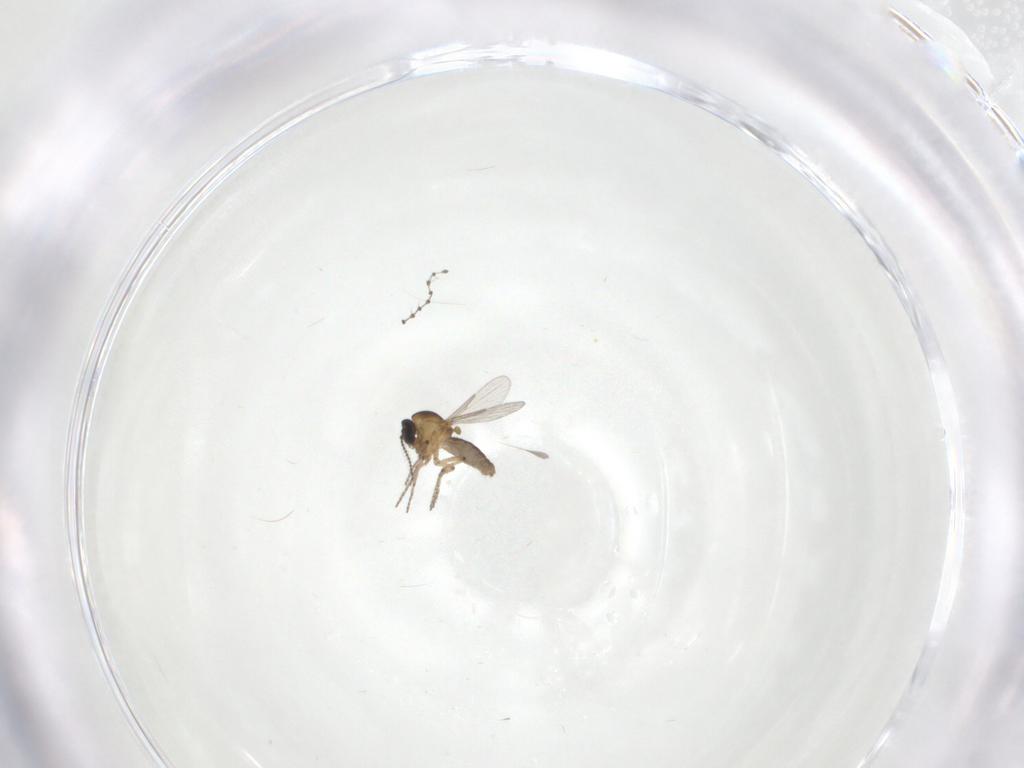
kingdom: Animalia
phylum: Arthropoda
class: Insecta
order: Diptera
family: Ceratopogonidae
